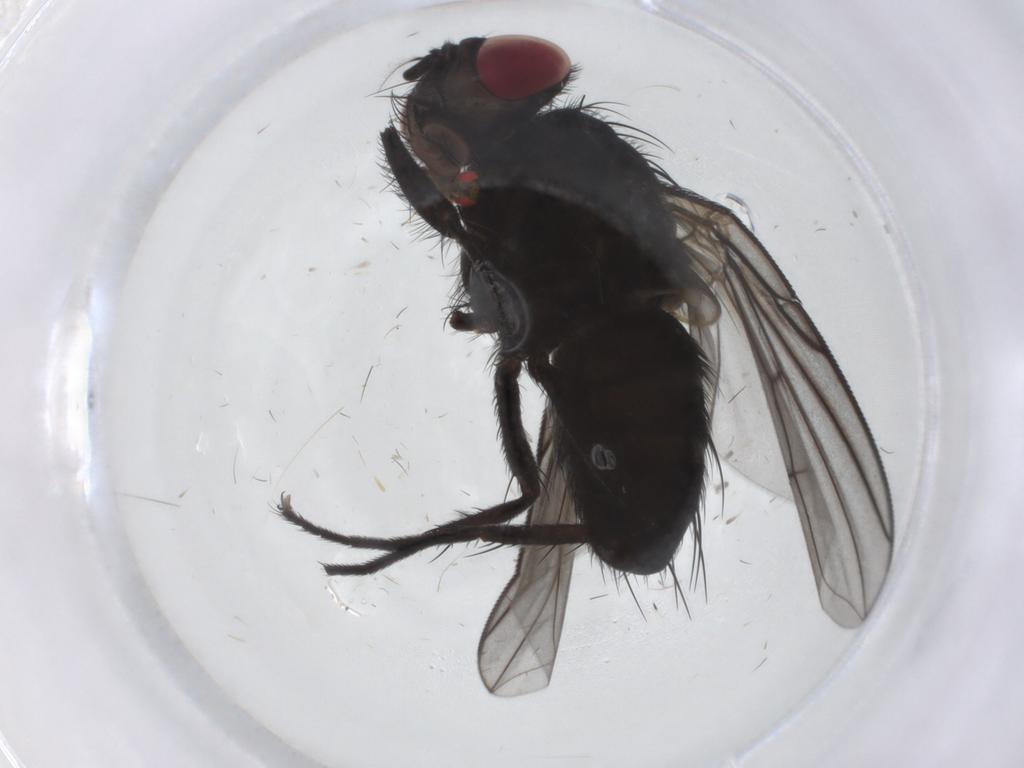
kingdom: Animalia
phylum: Arthropoda
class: Insecta
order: Diptera
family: Tachinidae
